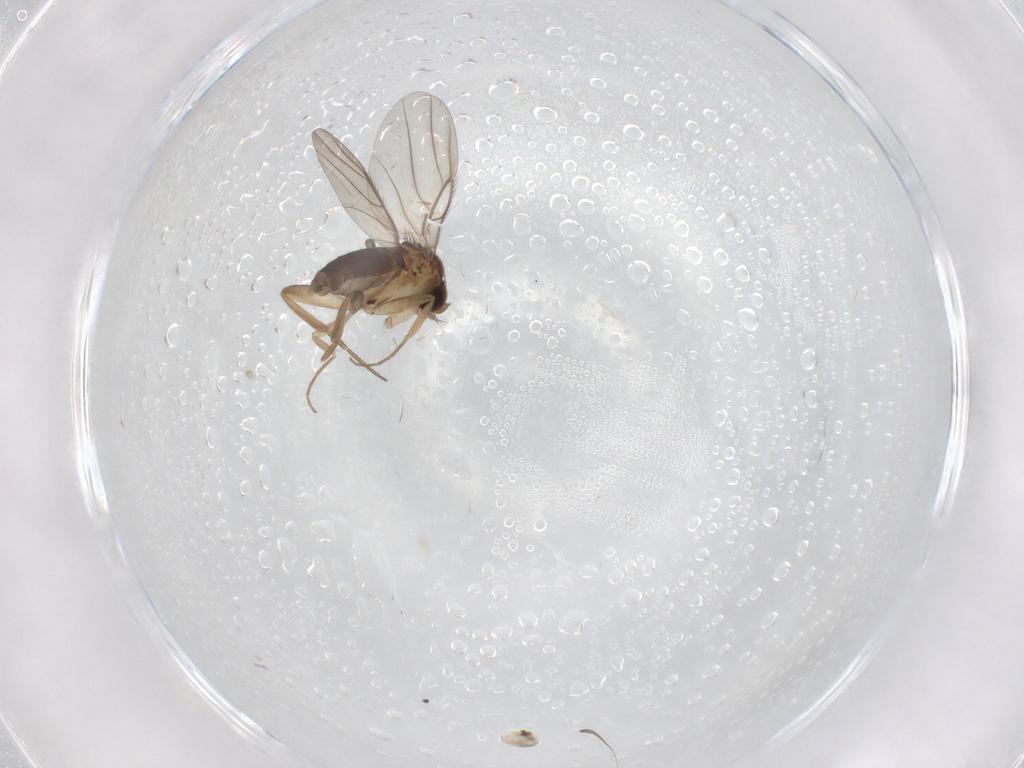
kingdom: Animalia
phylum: Arthropoda
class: Insecta
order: Diptera
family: Phoridae
